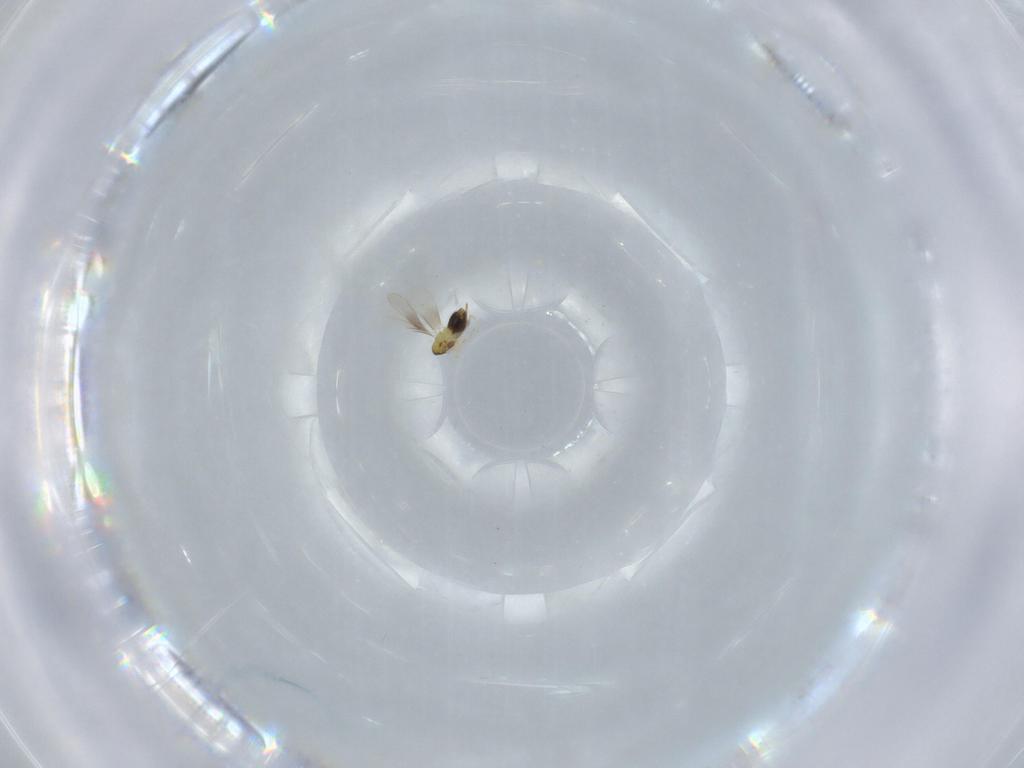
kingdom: Animalia
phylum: Arthropoda
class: Insecta
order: Hymenoptera
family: Aphelinidae
